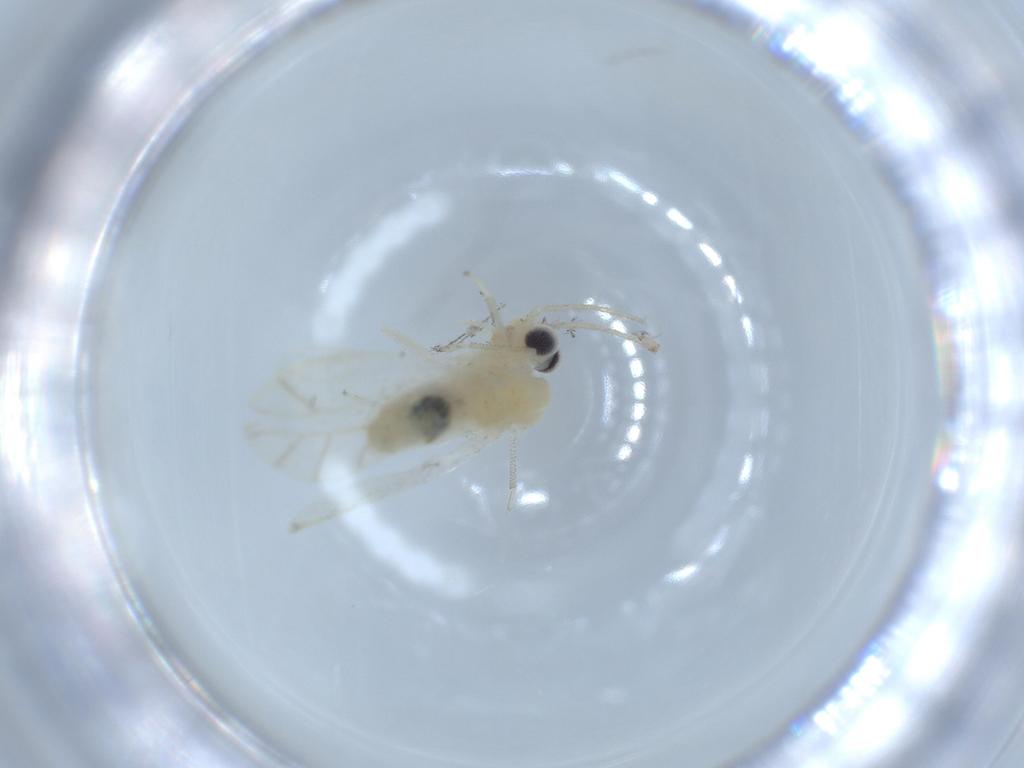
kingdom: Animalia
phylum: Arthropoda
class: Insecta
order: Psocodea
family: Caeciliusidae
